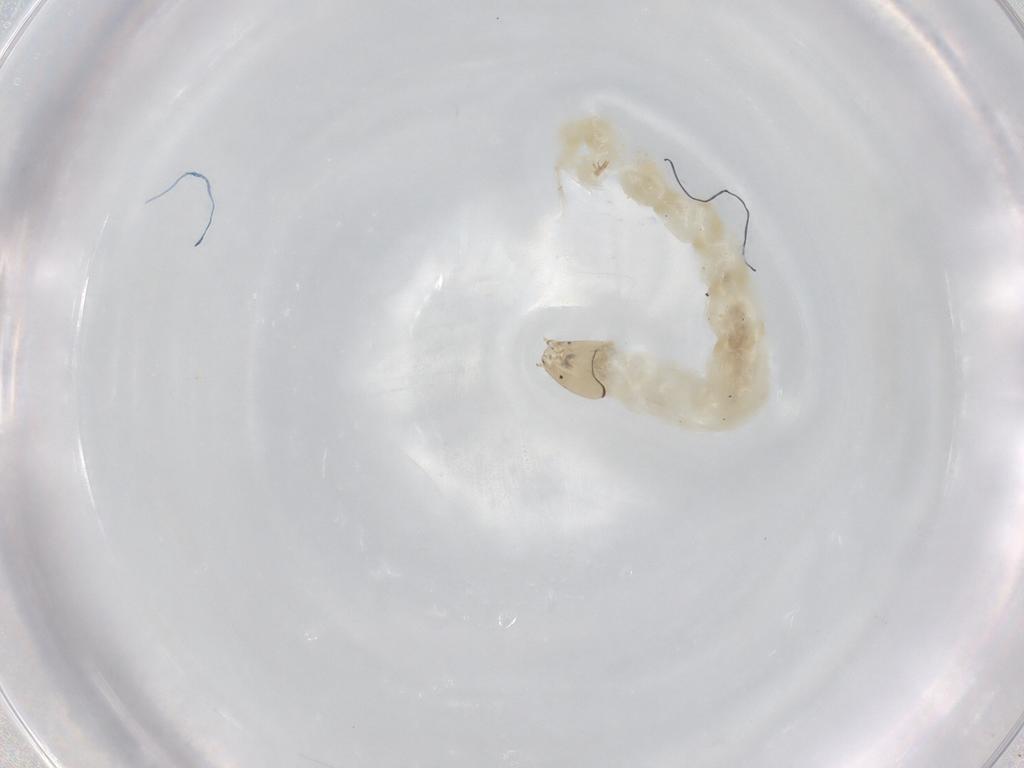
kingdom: Animalia
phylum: Arthropoda
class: Insecta
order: Diptera
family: Chironomidae
